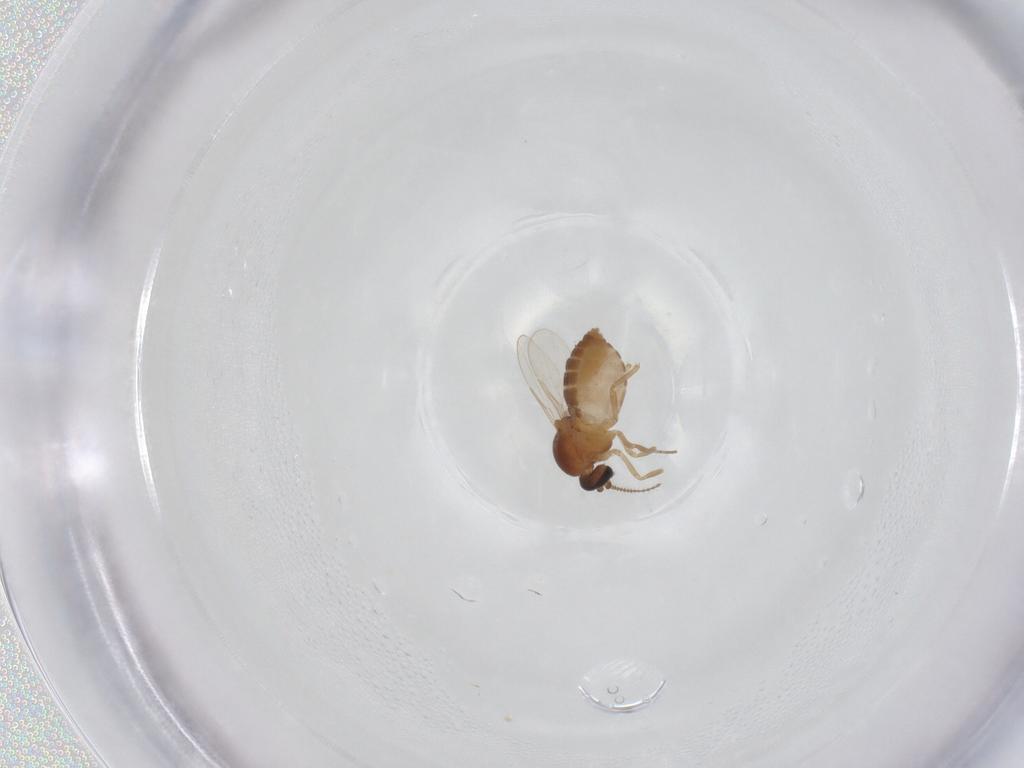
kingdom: Animalia
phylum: Arthropoda
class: Insecta
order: Diptera
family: Ceratopogonidae
